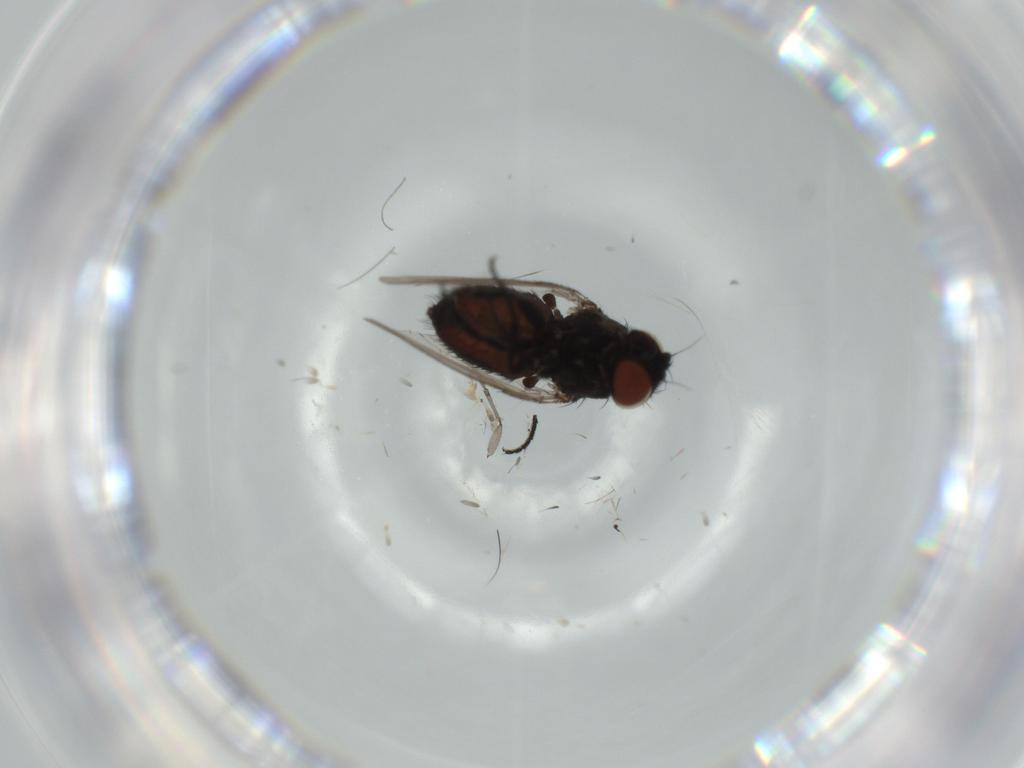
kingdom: Animalia
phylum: Arthropoda
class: Insecta
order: Diptera
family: Milichiidae
